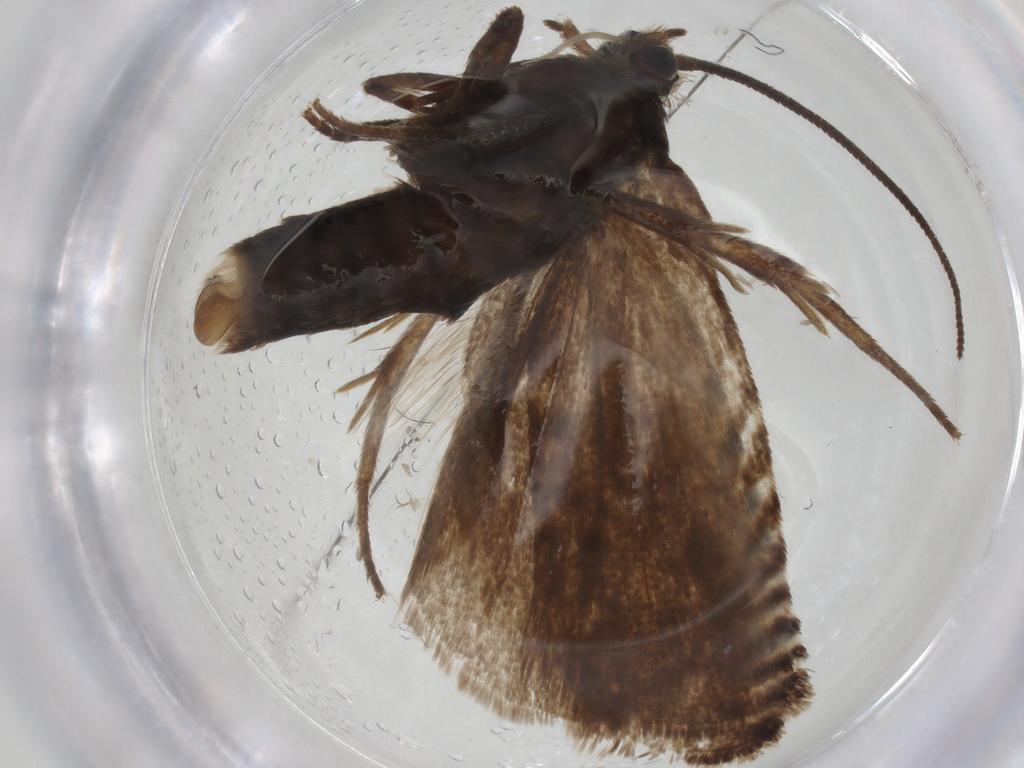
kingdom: Animalia
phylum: Arthropoda
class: Insecta
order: Lepidoptera
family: Tortricidae
